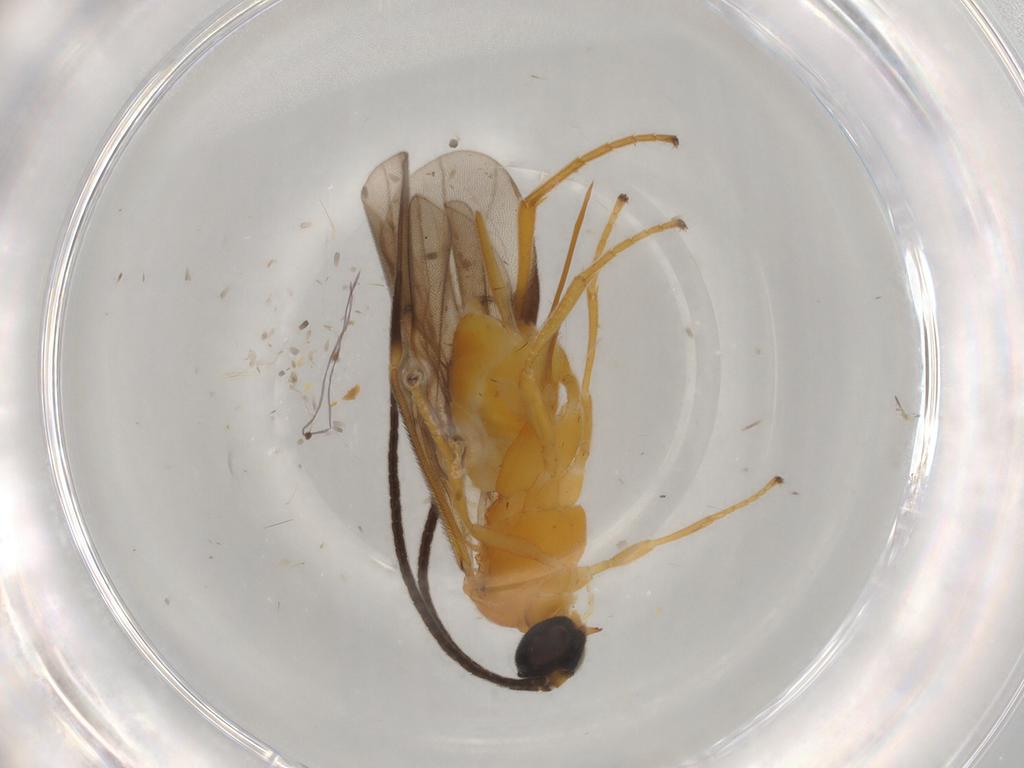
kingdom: Animalia
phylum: Arthropoda
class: Insecta
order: Hymenoptera
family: Braconidae
